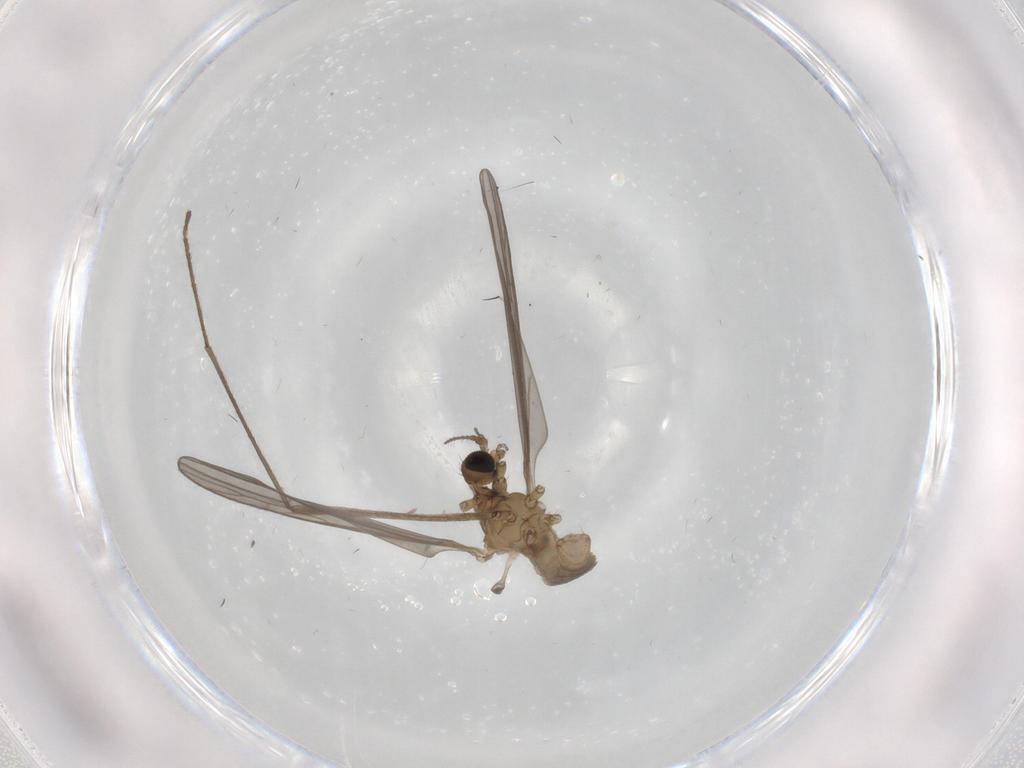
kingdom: Animalia
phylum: Arthropoda
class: Insecta
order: Diptera
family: Limoniidae
